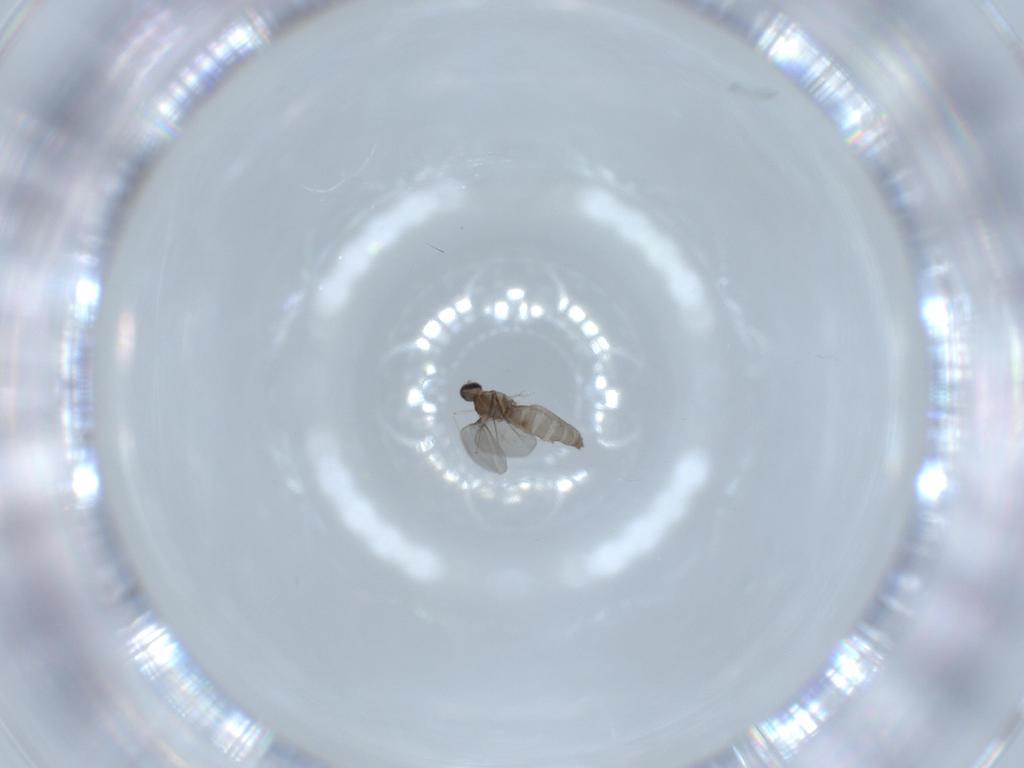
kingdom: Animalia
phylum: Arthropoda
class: Insecta
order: Diptera
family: Cecidomyiidae
